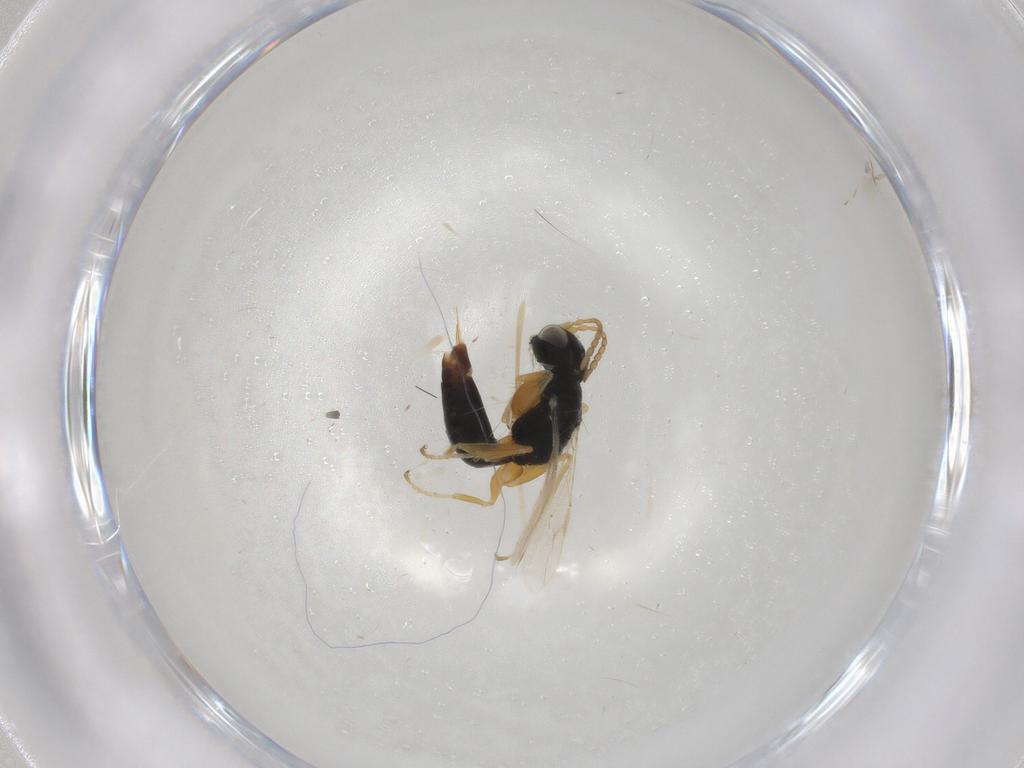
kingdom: Animalia
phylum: Arthropoda
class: Insecta
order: Hymenoptera
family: Dryinidae
